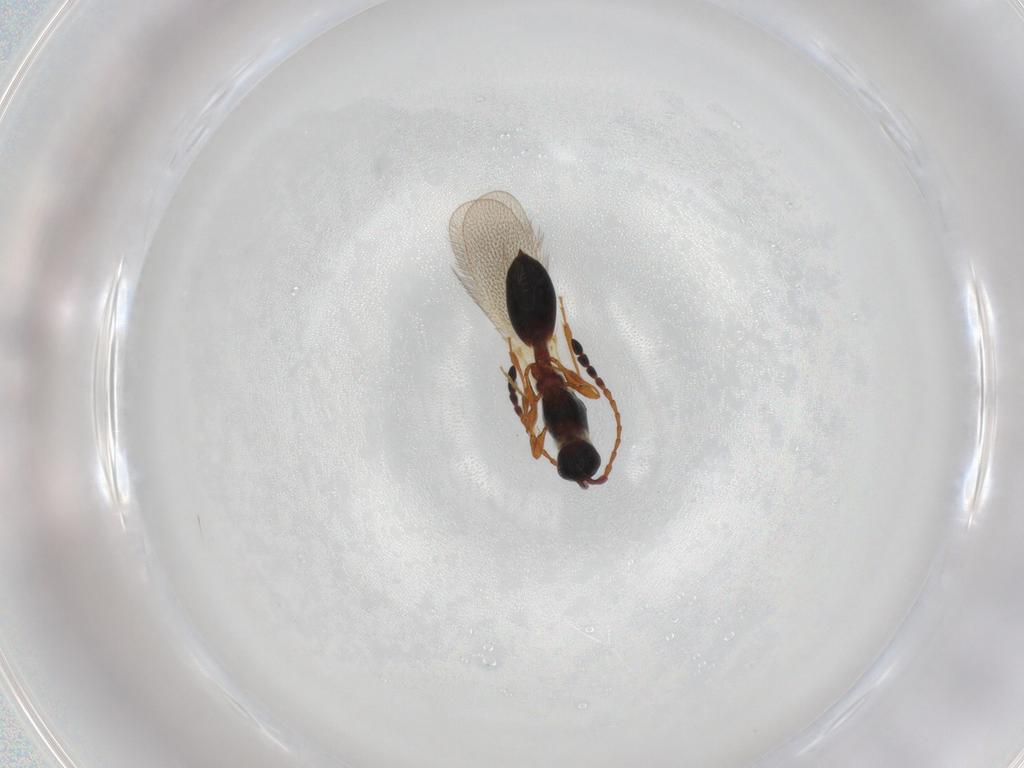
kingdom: Animalia
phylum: Arthropoda
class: Insecta
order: Hymenoptera
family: Diapriidae
